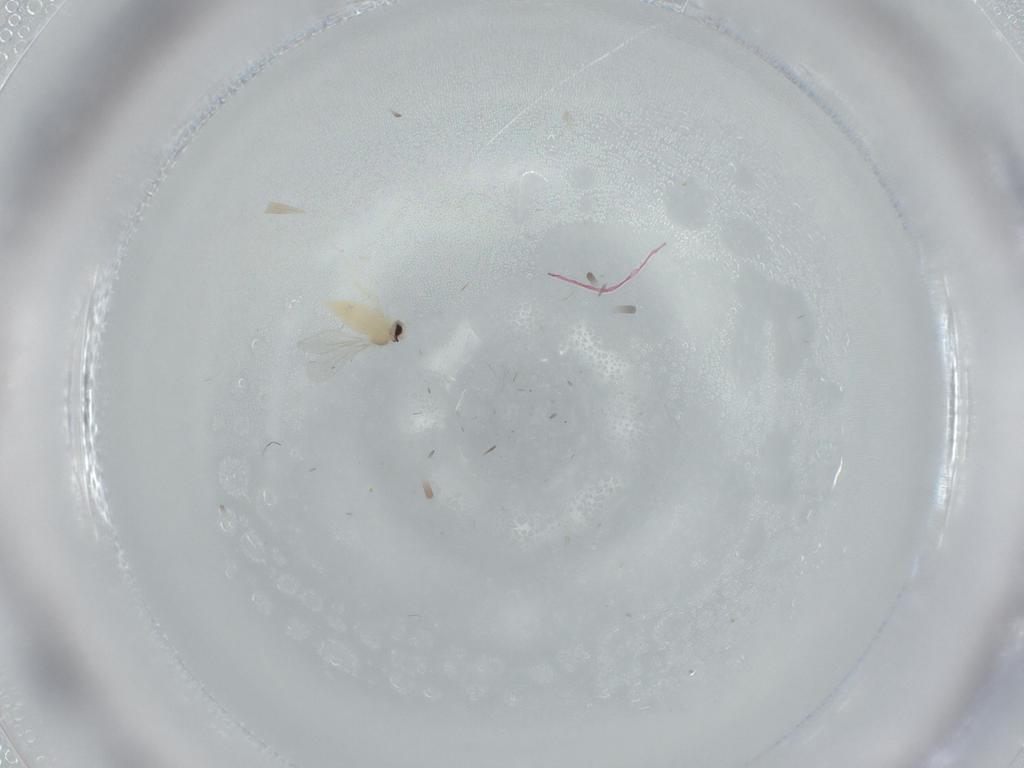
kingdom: Animalia
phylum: Arthropoda
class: Insecta
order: Diptera
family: Cecidomyiidae
